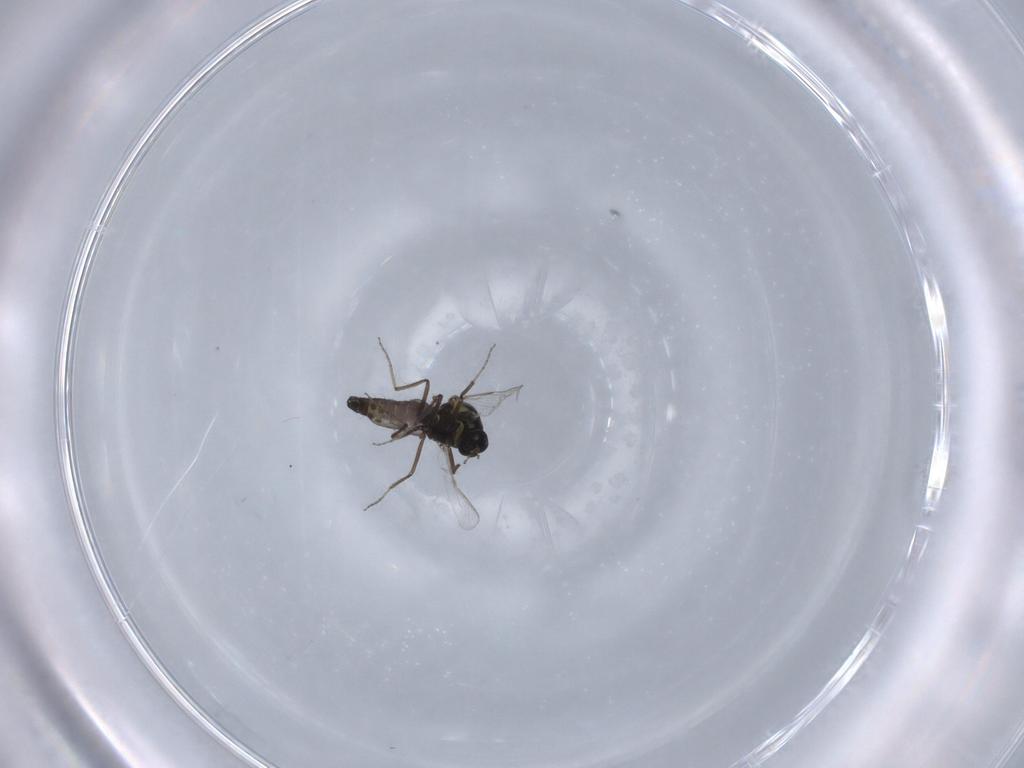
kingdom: Animalia
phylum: Arthropoda
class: Insecta
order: Diptera
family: Ceratopogonidae
